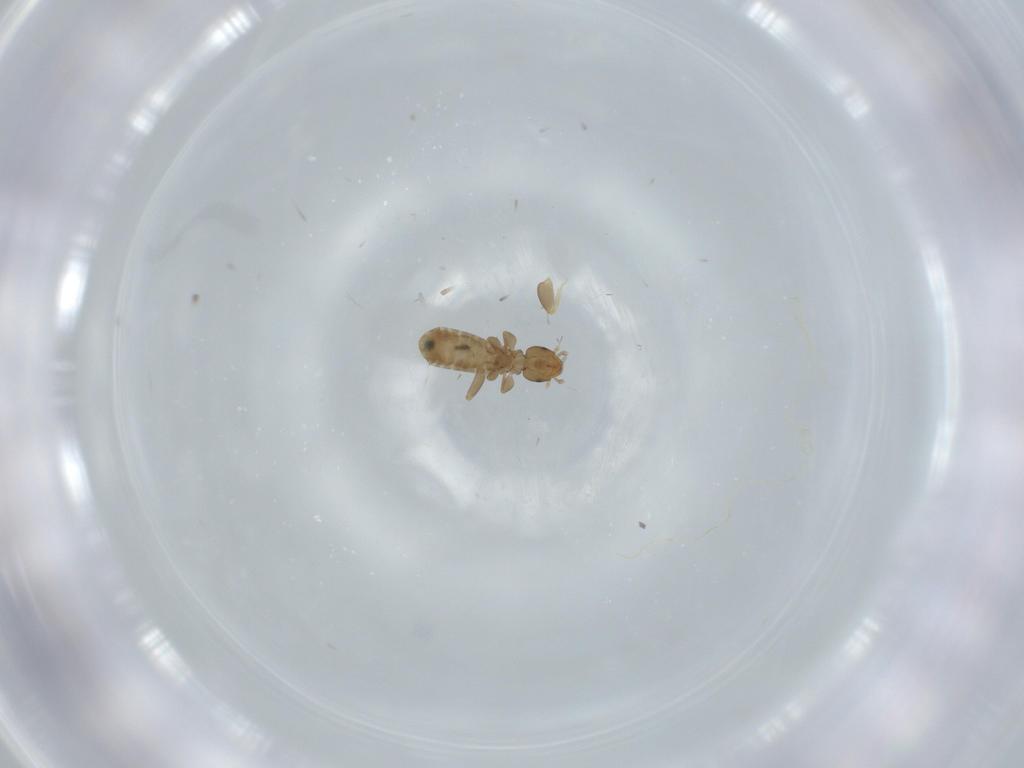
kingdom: Animalia
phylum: Arthropoda
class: Insecta
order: Psocodea
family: Liposcelididae
